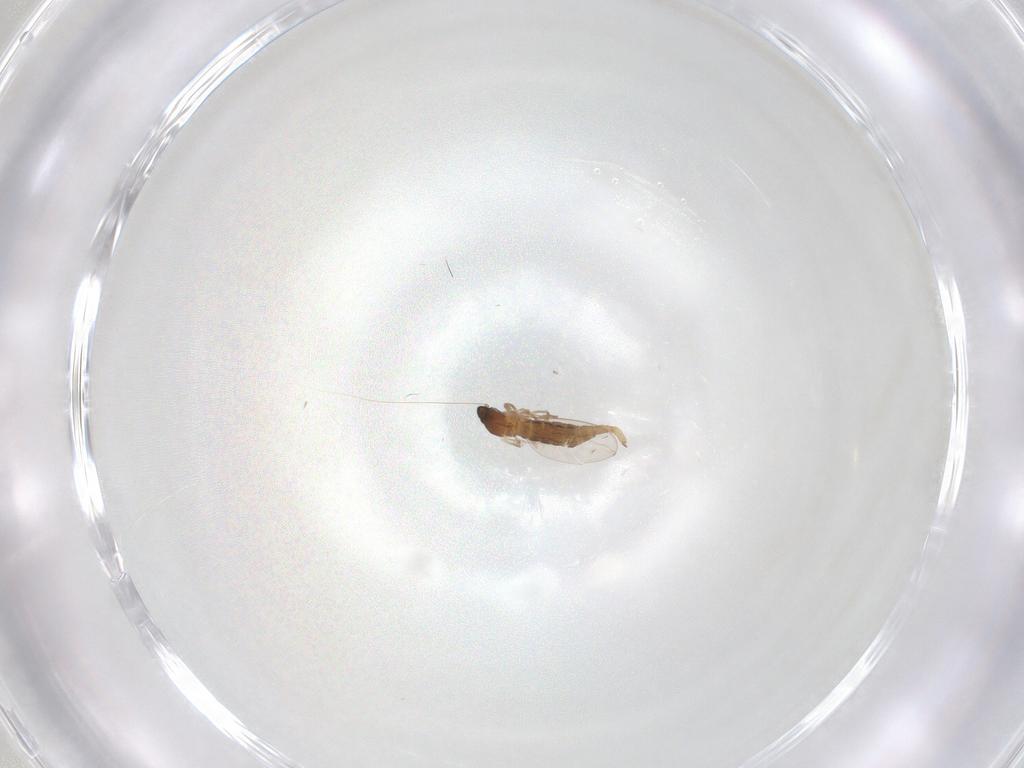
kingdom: Animalia
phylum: Arthropoda
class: Insecta
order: Diptera
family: Cecidomyiidae
